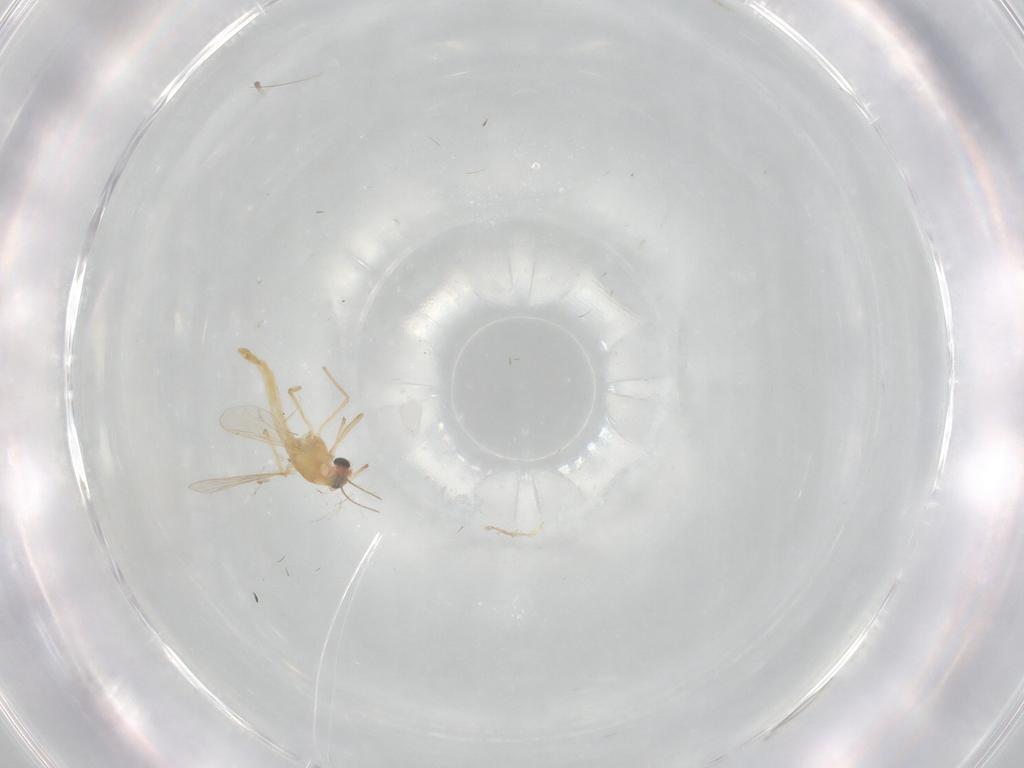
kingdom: Animalia
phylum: Arthropoda
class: Insecta
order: Diptera
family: Chironomidae
